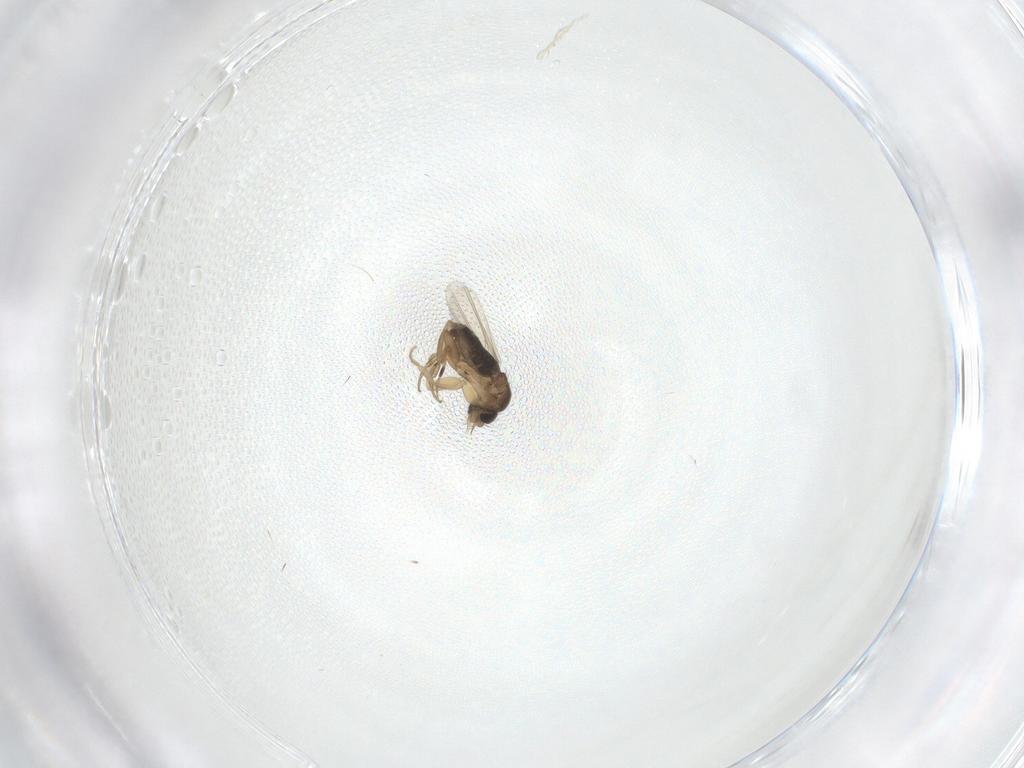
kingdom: Animalia
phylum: Arthropoda
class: Insecta
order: Diptera
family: Phoridae
